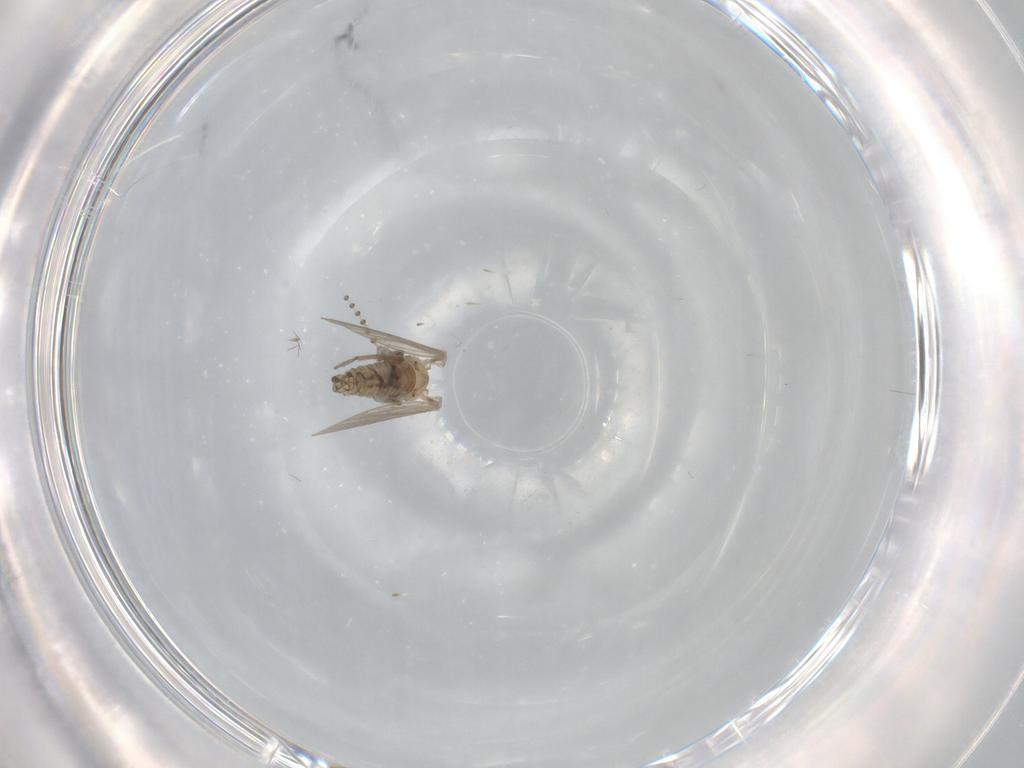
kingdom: Animalia
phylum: Arthropoda
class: Insecta
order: Diptera
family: Psychodidae
